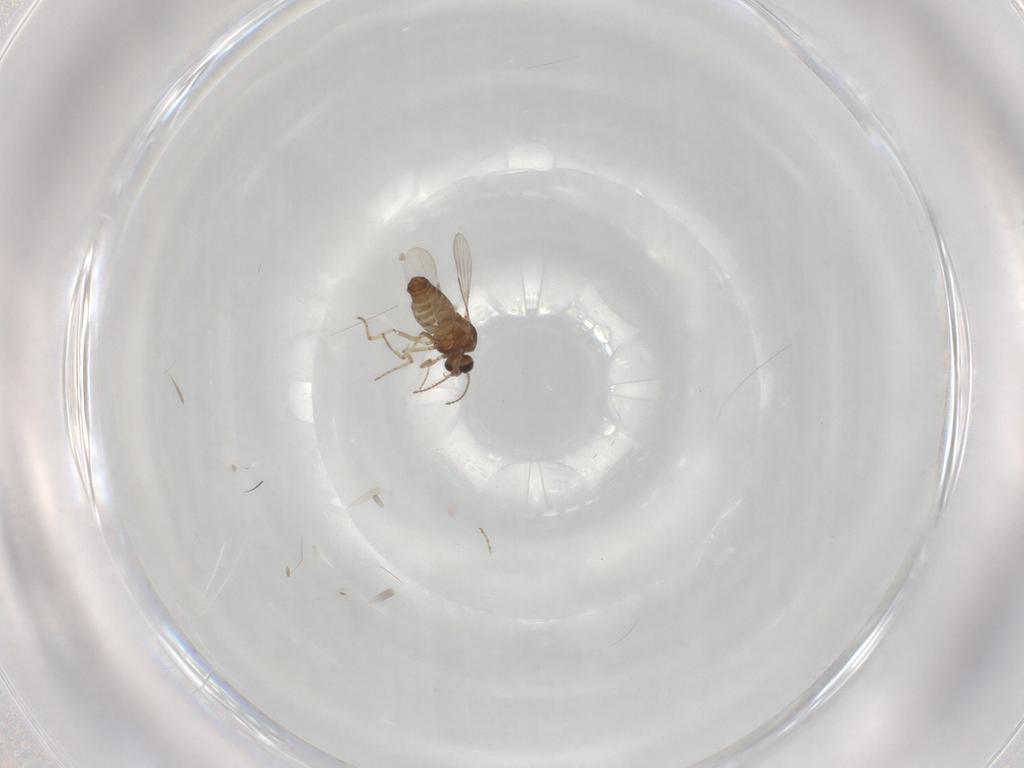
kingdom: Animalia
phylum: Arthropoda
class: Insecta
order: Diptera
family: Ceratopogonidae
